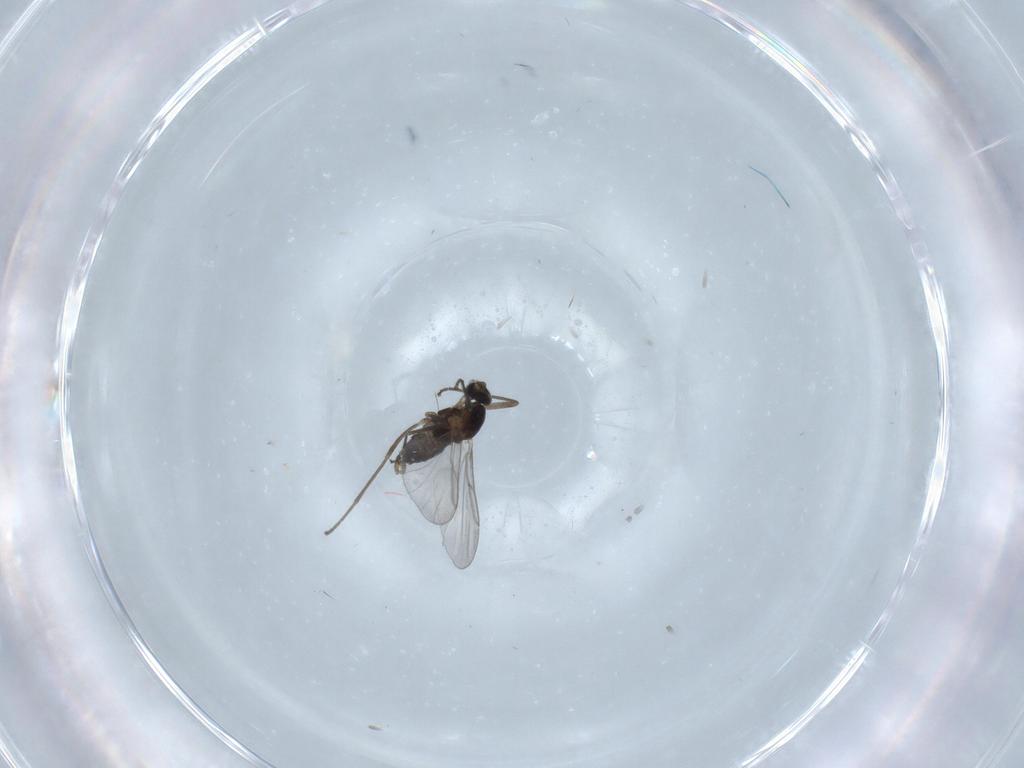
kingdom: Animalia
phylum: Arthropoda
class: Insecta
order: Diptera
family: Cecidomyiidae
